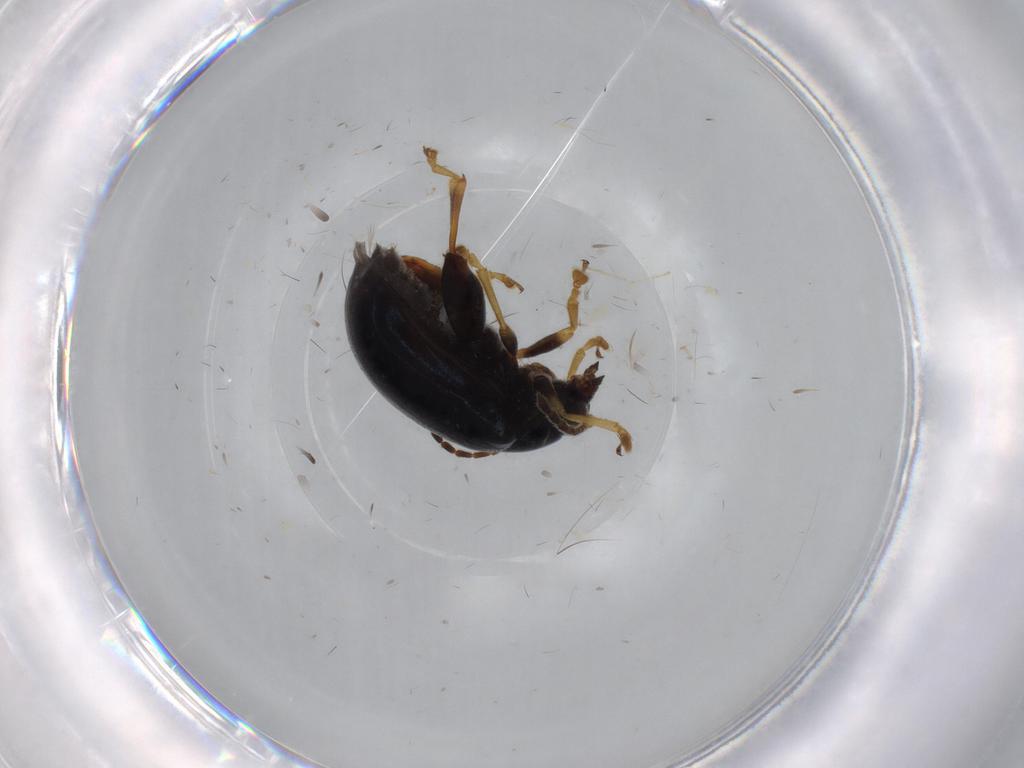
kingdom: Animalia
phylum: Arthropoda
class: Insecta
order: Coleoptera
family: Chrysomelidae
